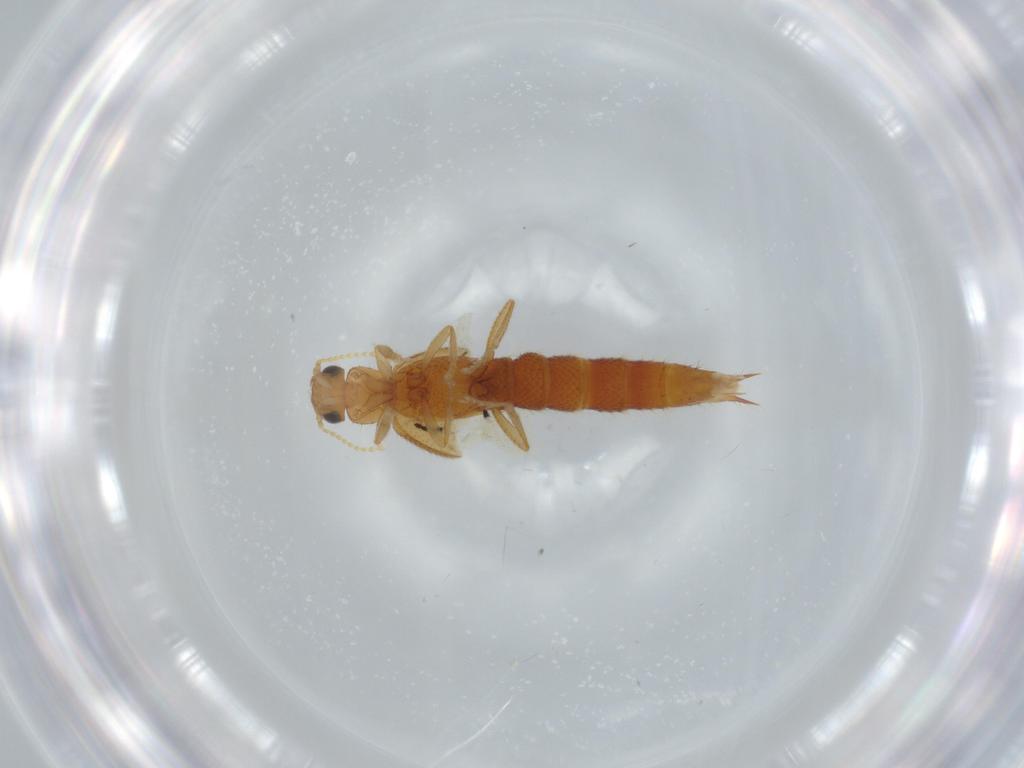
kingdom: Animalia
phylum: Arthropoda
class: Insecta
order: Coleoptera
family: Staphylinidae
